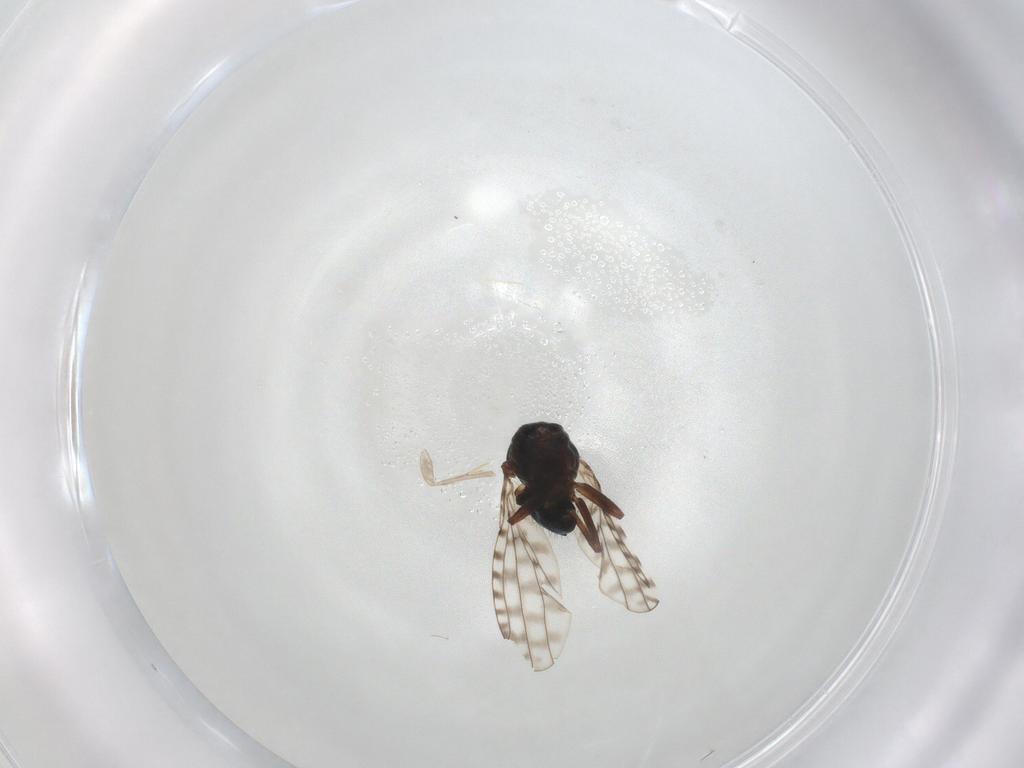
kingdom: Animalia
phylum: Arthropoda
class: Insecta
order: Diptera
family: Ephydridae
